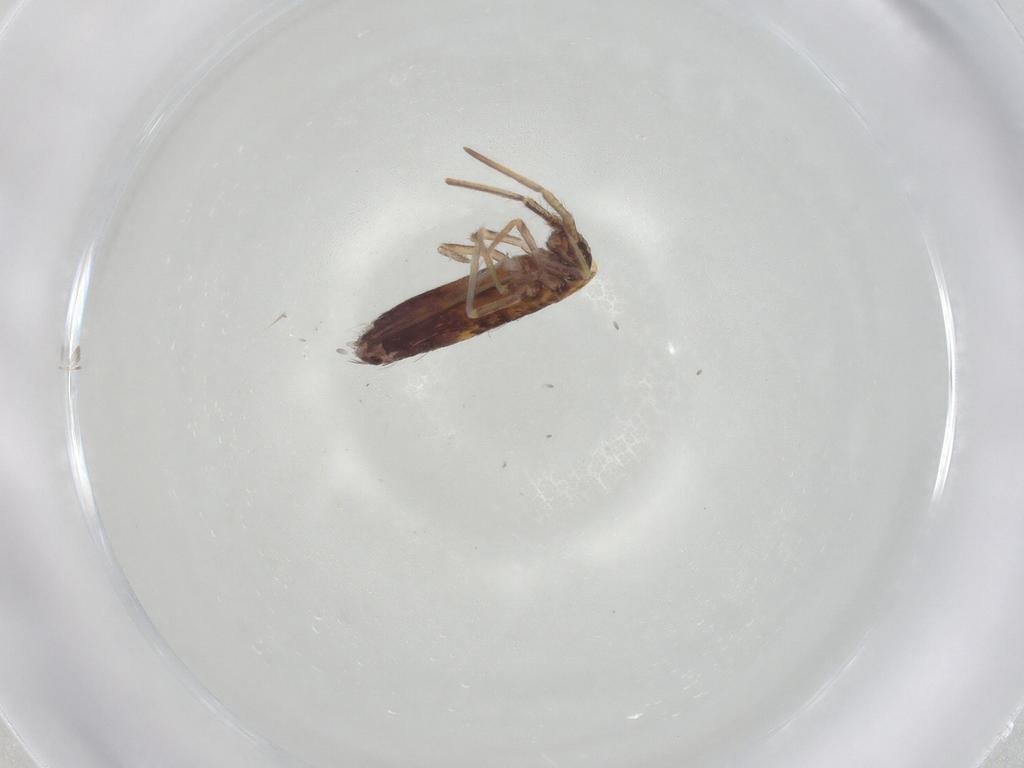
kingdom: Animalia
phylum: Arthropoda
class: Collembola
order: Entomobryomorpha
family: Entomobryidae
